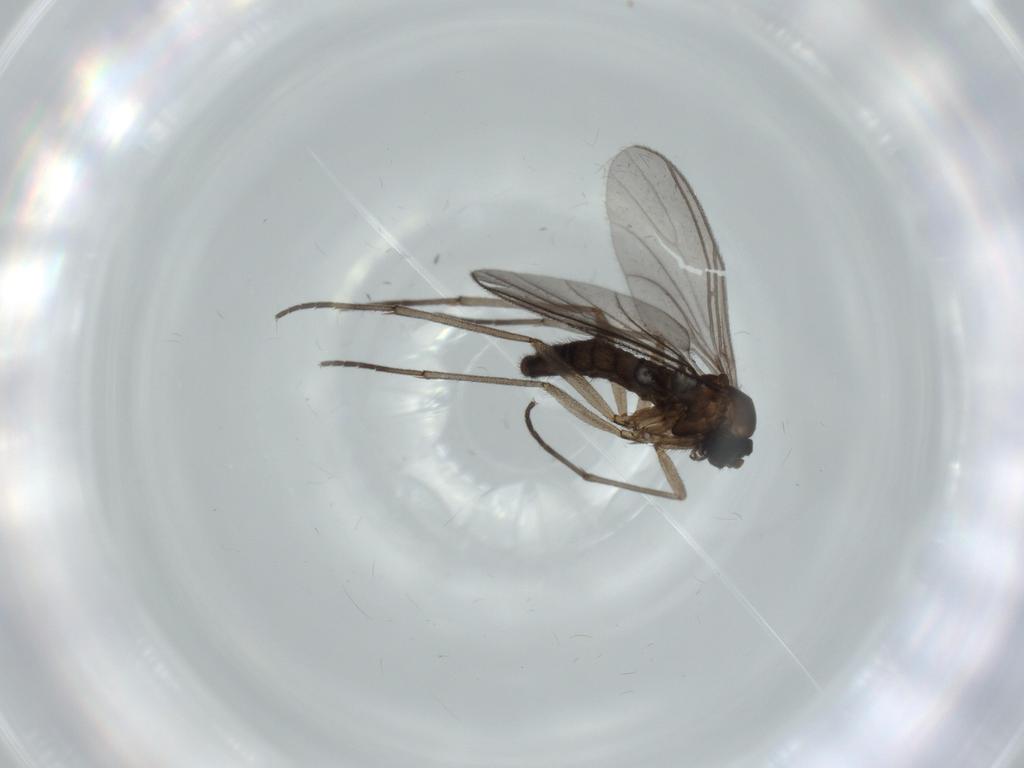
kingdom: Animalia
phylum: Arthropoda
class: Insecta
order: Diptera
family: Sciaridae
